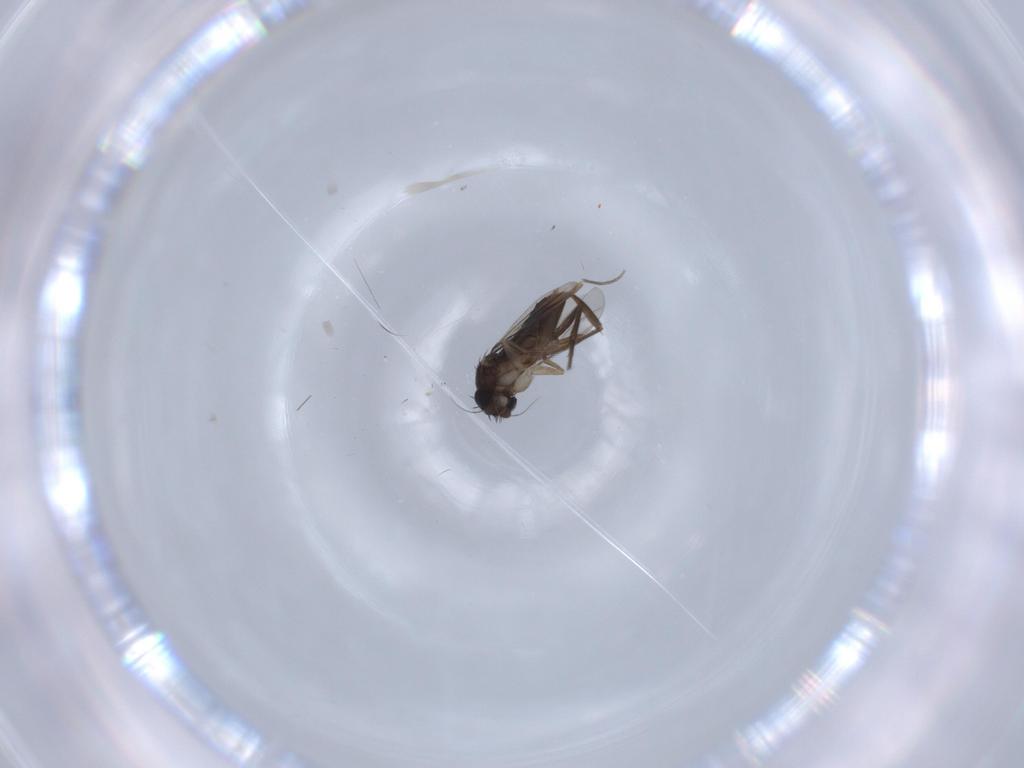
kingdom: Animalia
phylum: Arthropoda
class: Insecta
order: Diptera
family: Phoridae
